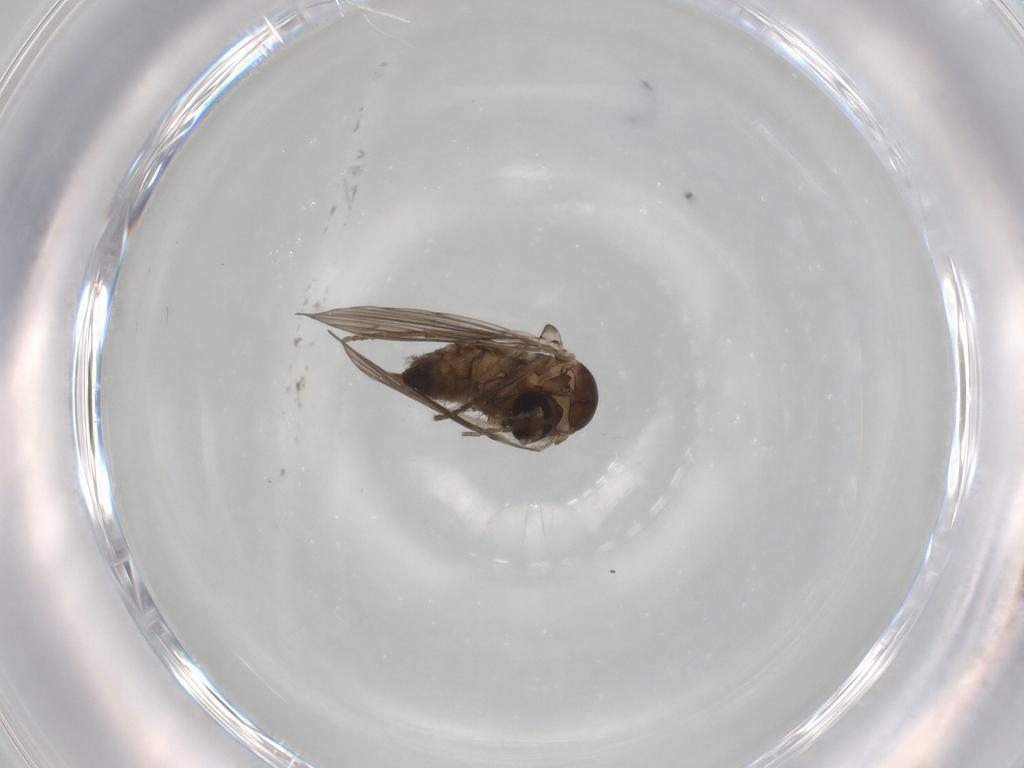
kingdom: Animalia
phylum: Arthropoda
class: Insecta
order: Diptera
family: Psychodidae
